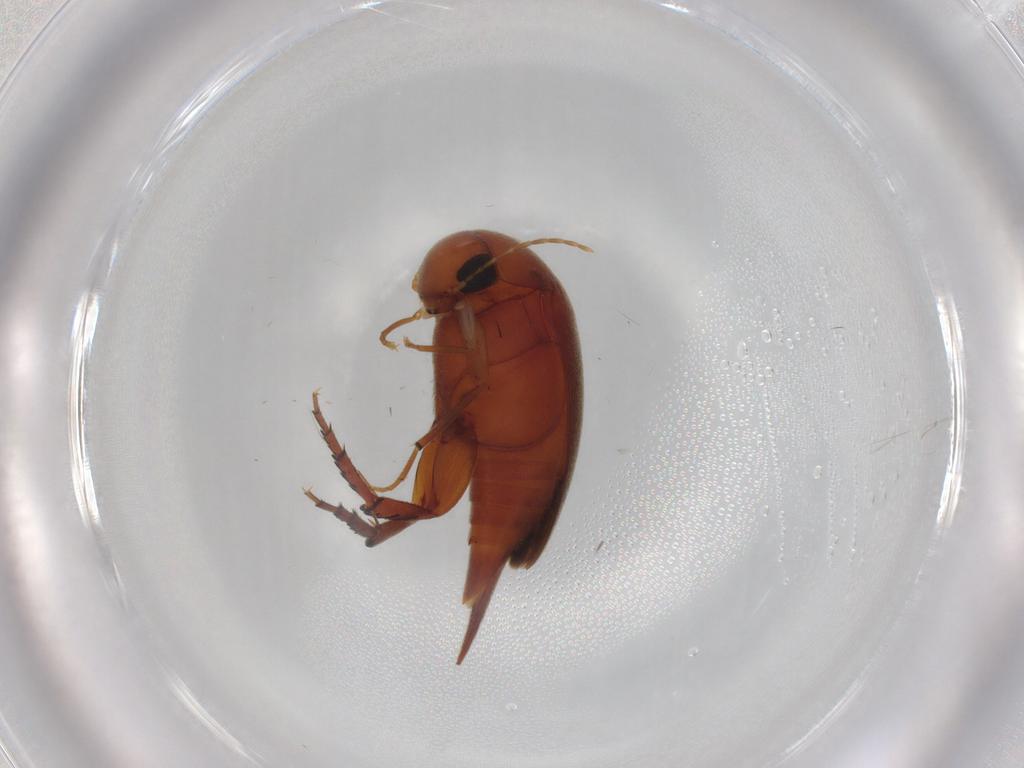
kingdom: Animalia
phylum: Arthropoda
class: Insecta
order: Coleoptera
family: Mordellidae
